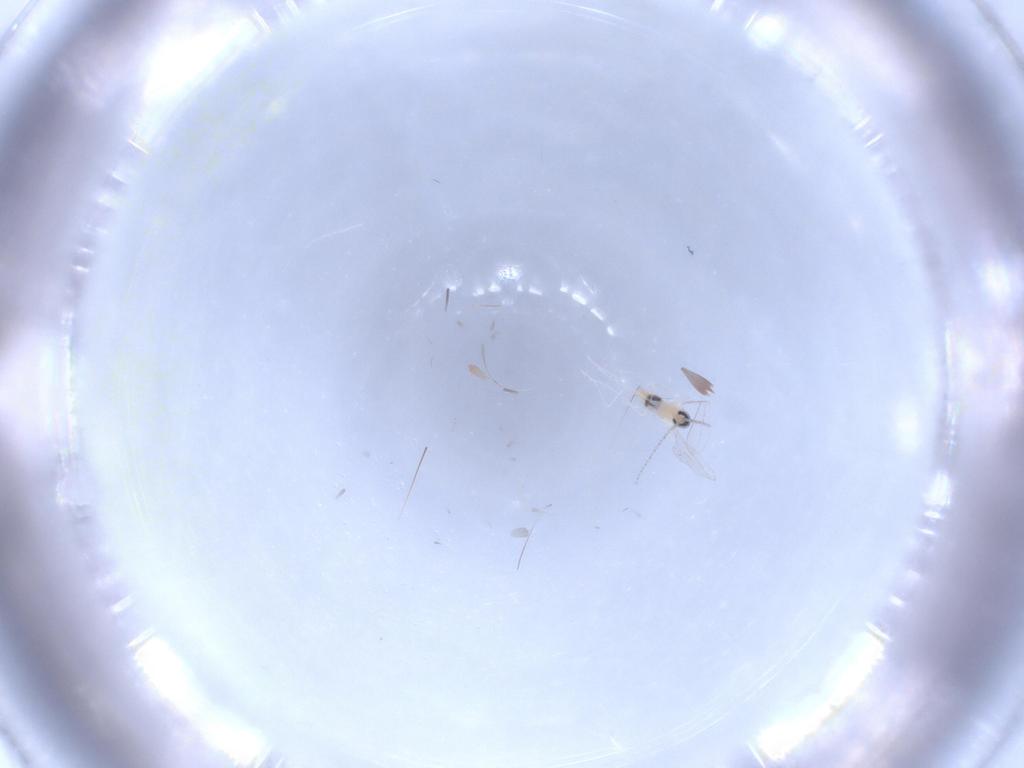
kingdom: Animalia
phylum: Arthropoda
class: Insecta
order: Diptera
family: Cecidomyiidae
